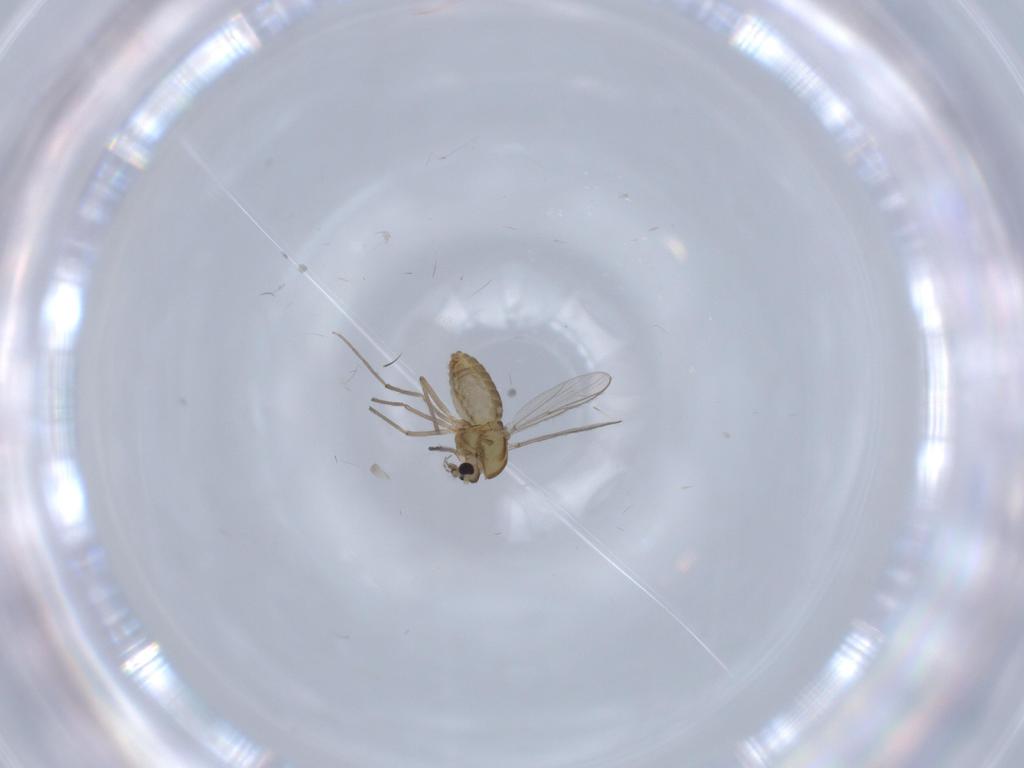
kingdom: Animalia
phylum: Arthropoda
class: Insecta
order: Diptera
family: Chironomidae
